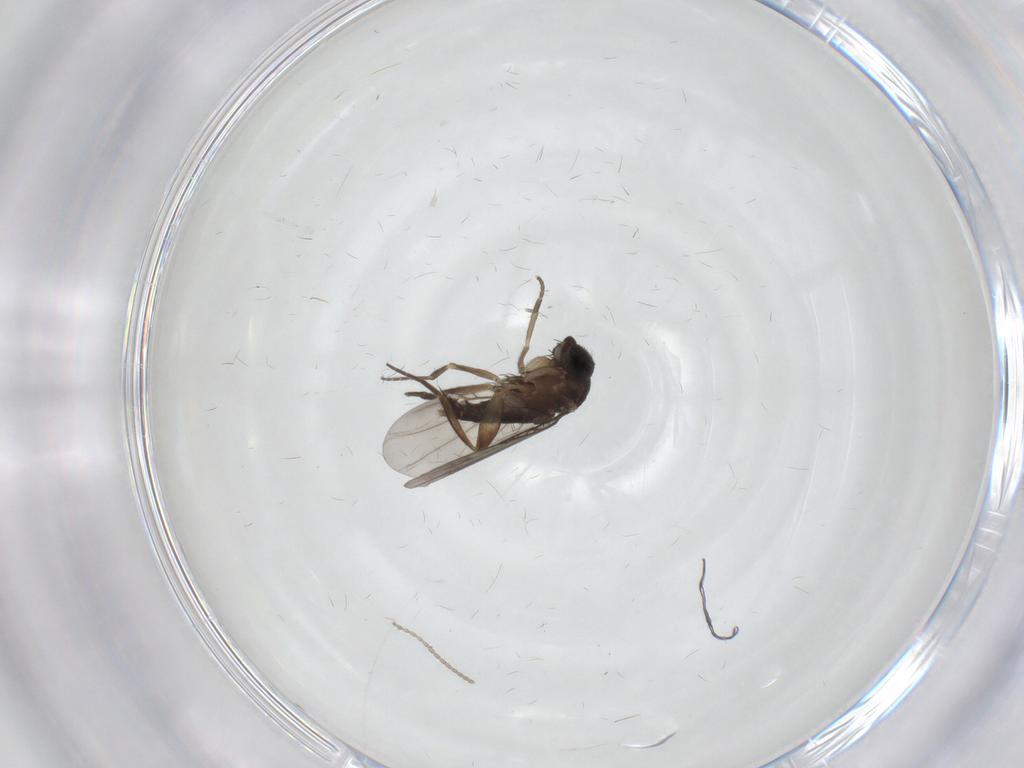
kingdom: Animalia
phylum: Arthropoda
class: Insecta
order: Diptera
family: Phoridae
